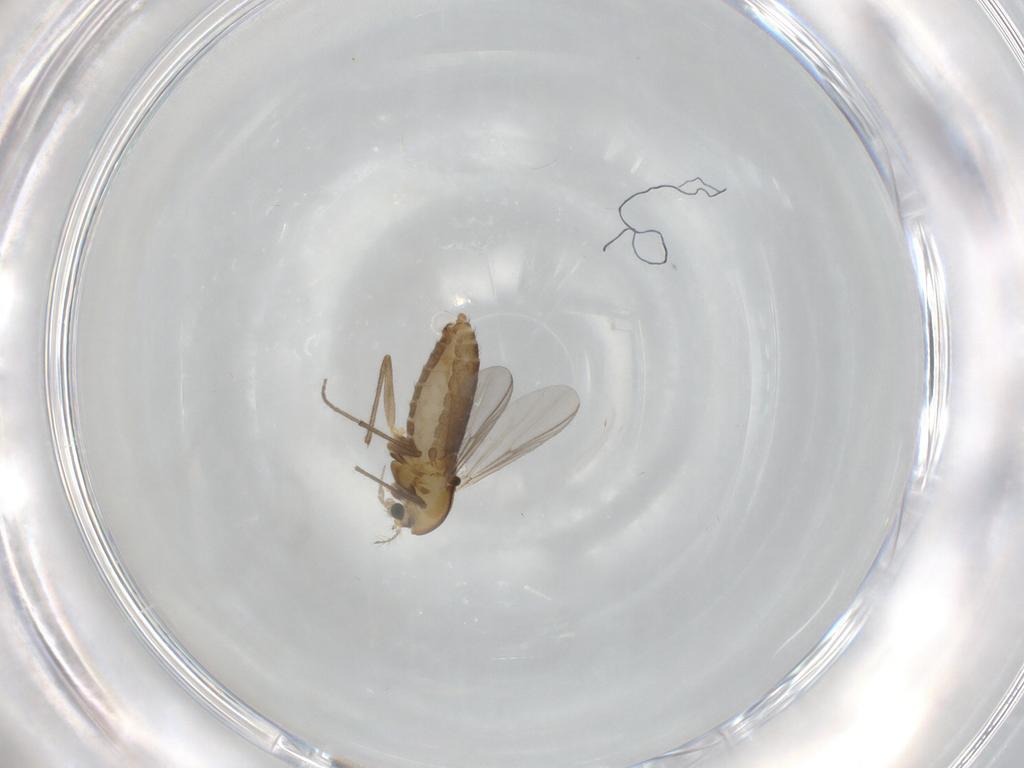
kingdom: Animalia
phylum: Arthropoda
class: Insecta
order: Diptera
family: Chironomidae
